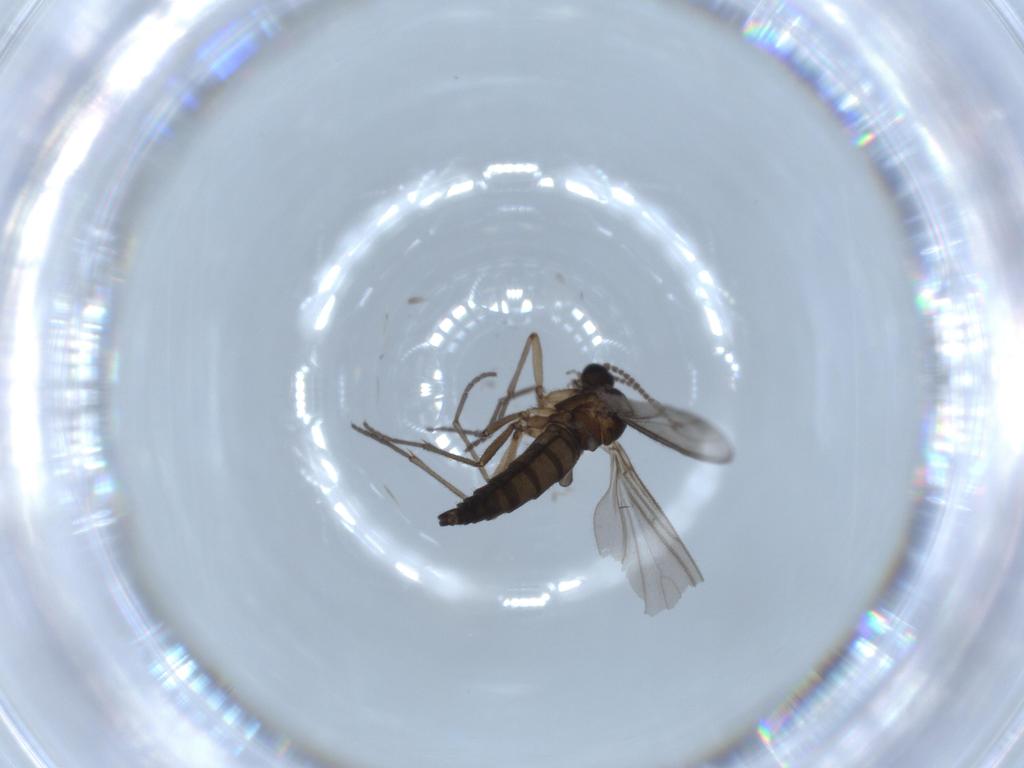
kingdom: Animalia
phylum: Arthropoda
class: Insecta
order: Diptera
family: Sciaridae
